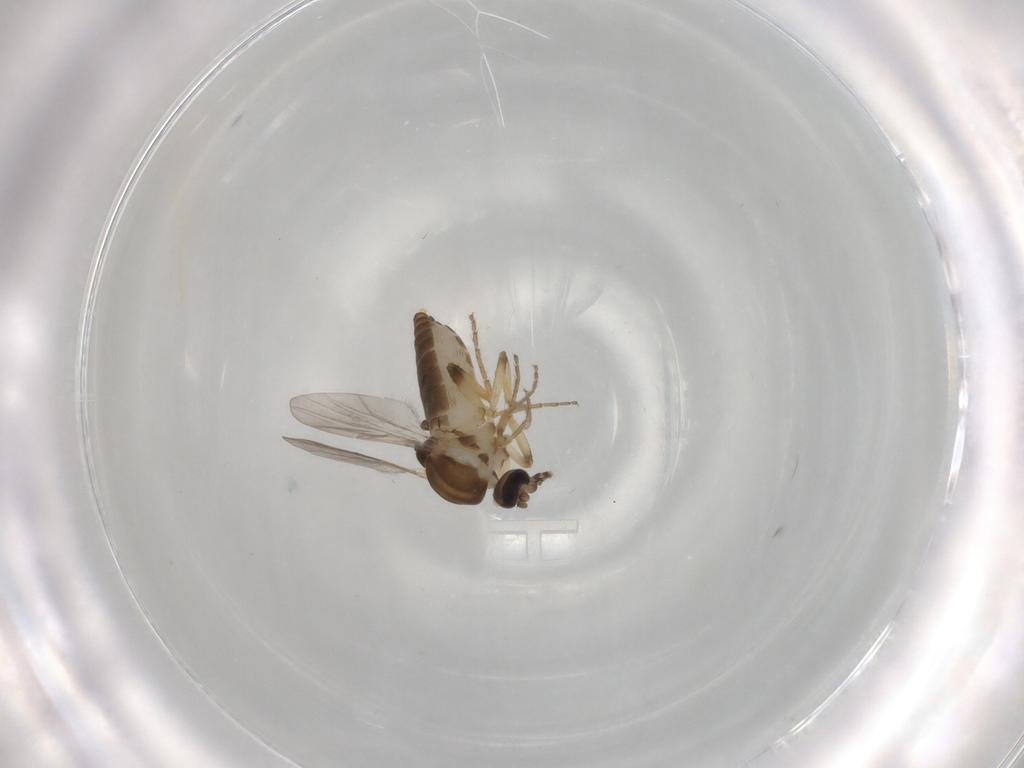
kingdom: Animalia
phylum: Arthropoda
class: Insecta
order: Diptera
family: Ceratopogonidae
